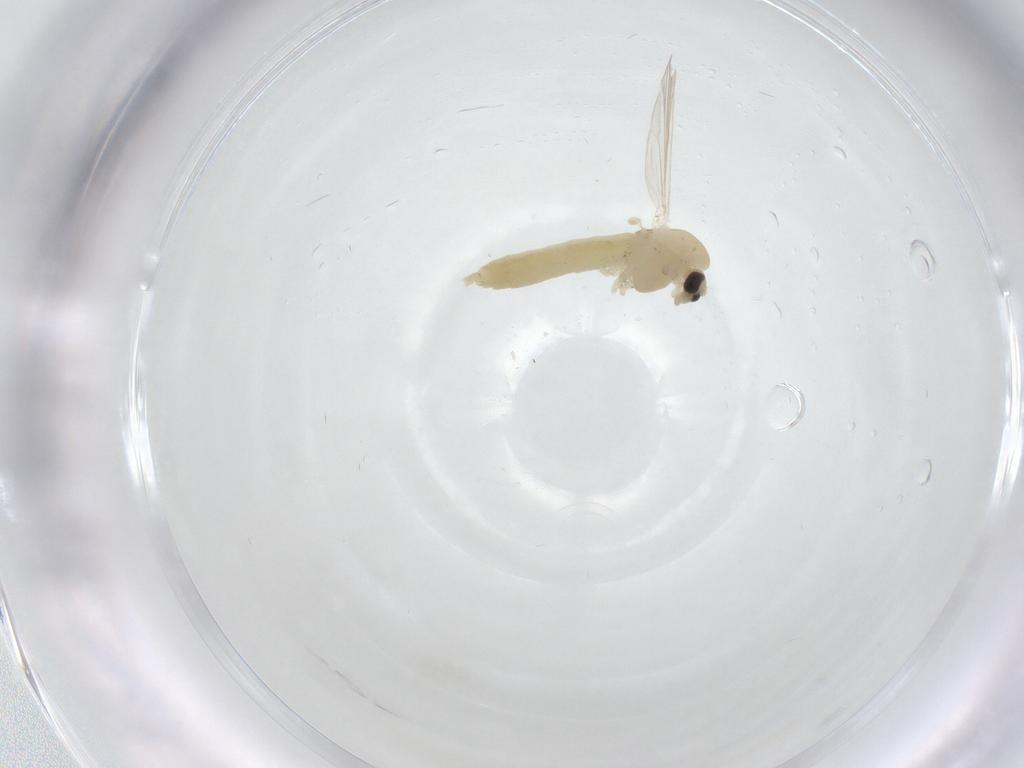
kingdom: Animalia
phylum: Arthropoda
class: Insecta
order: Diptera
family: Chironomidae
